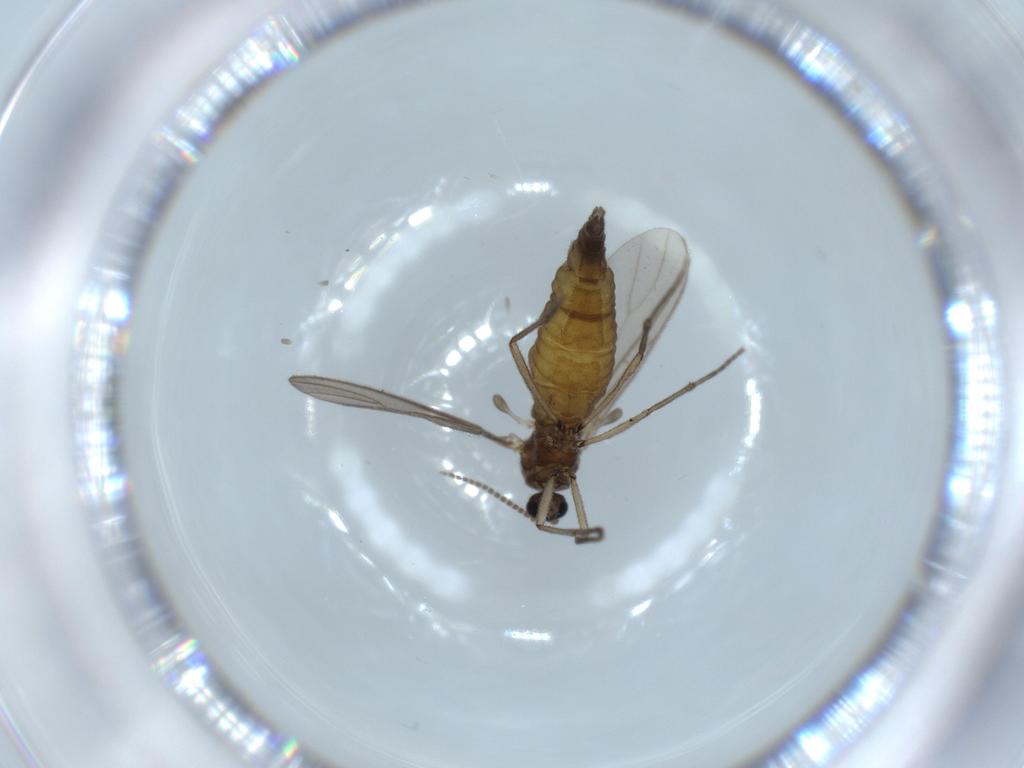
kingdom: Animalia
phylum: Arthropoda
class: Insecta
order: Diptera
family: Sciaridae
